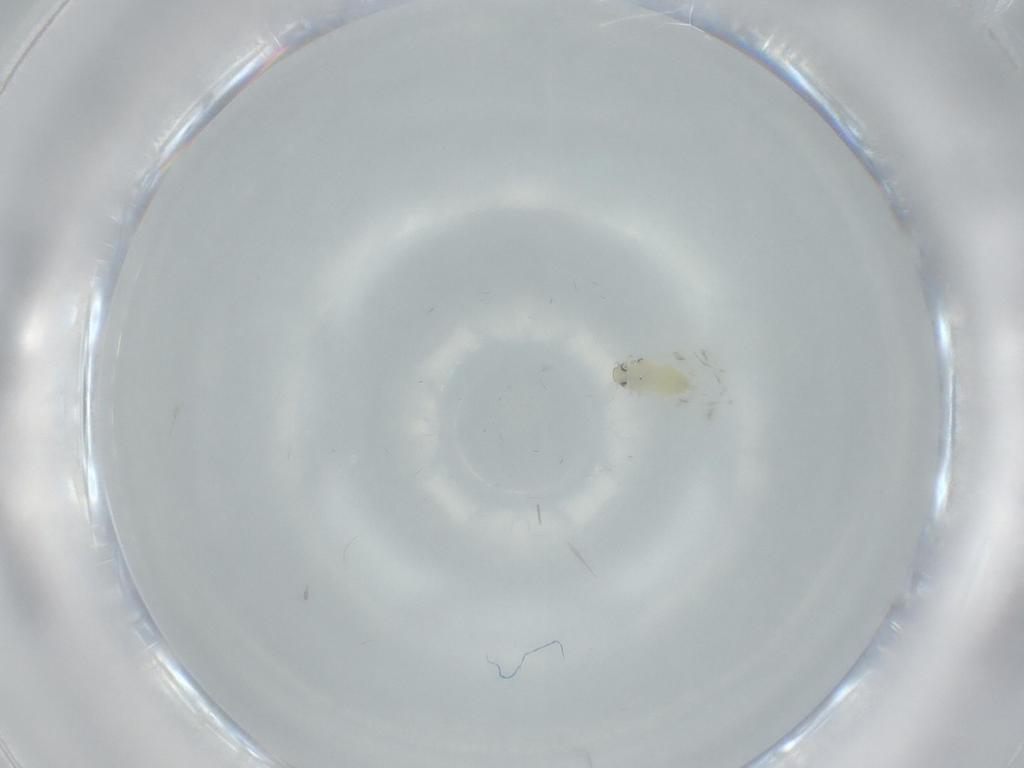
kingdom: Animalia
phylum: Arthropoda
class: Insecta
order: Hemiptera
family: Aleyrodidae
